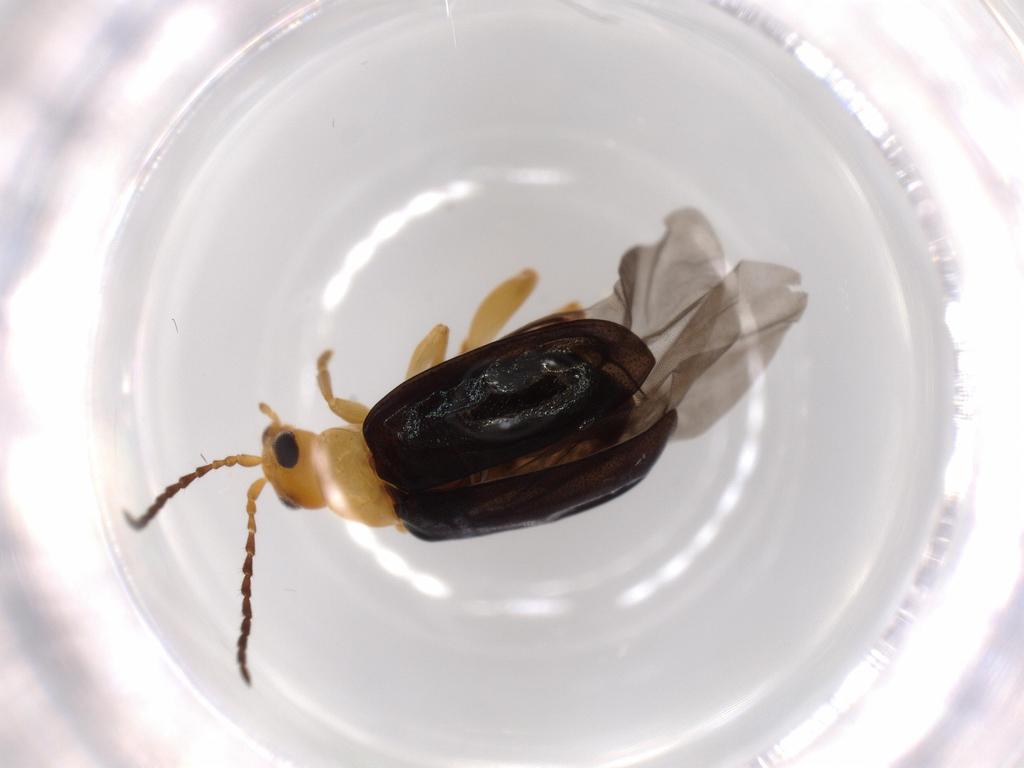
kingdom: Animalia
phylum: Arthropoda
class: Insecta
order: Coleoptera
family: Chrysomelidae
